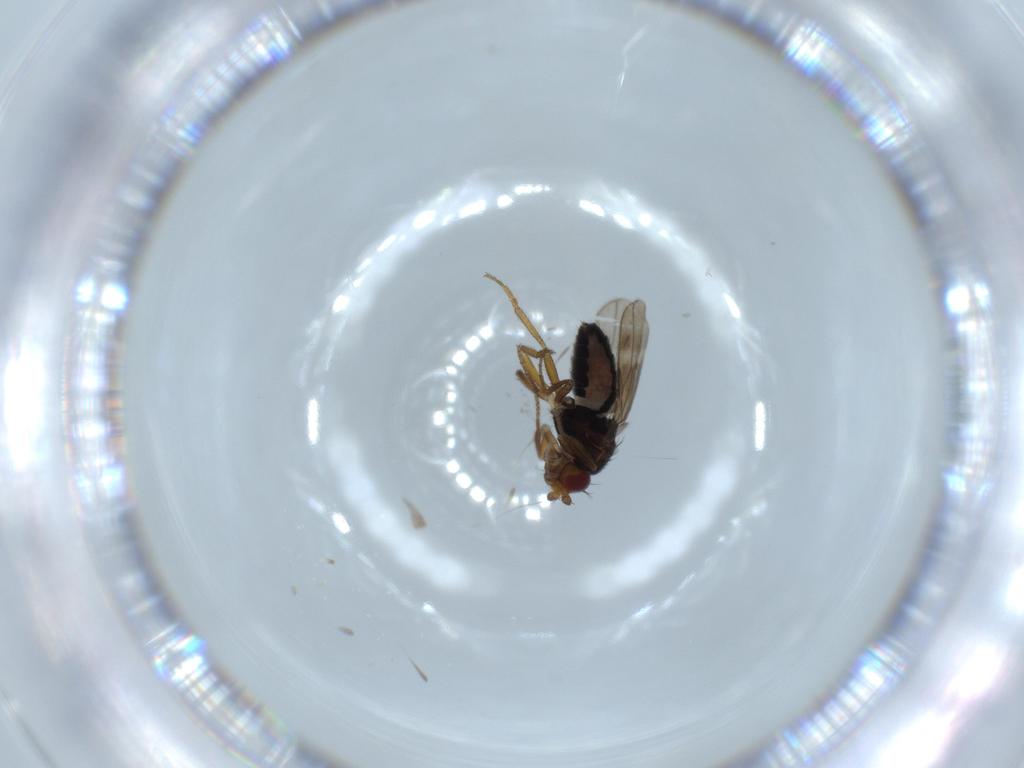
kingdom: Animalia
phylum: Arthropoda
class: Insecta
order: Diptera
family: Sphaeroceridae
